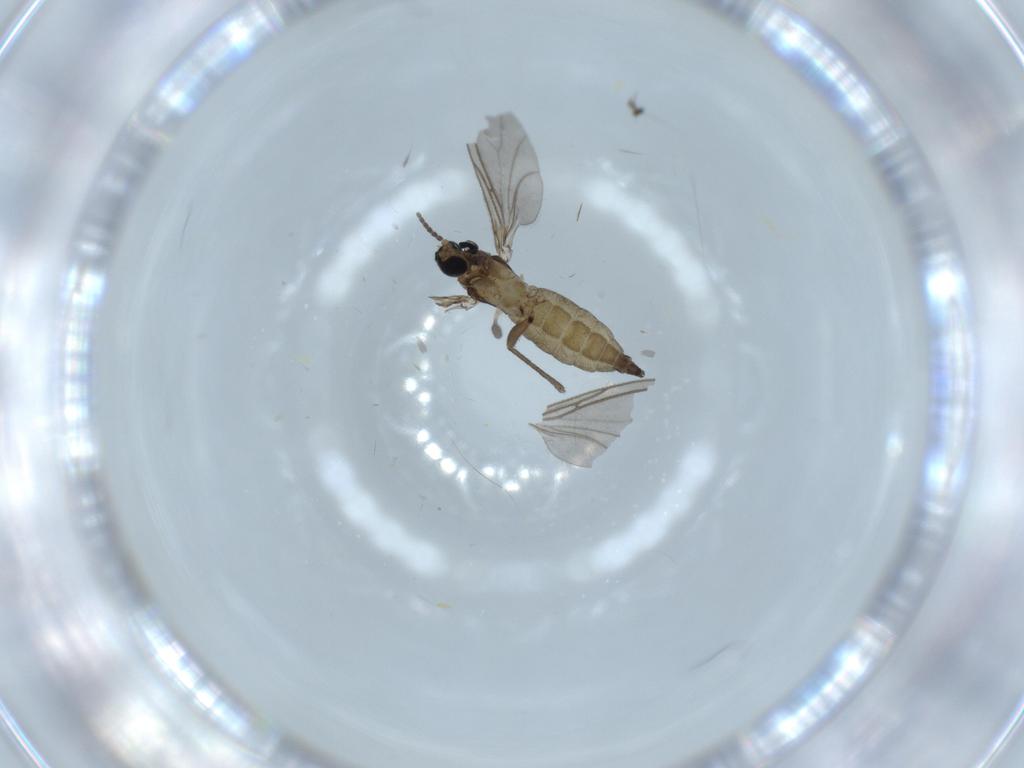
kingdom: Animalia
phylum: Arthropoda
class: Insecta
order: Diptera
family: Sciaridae
